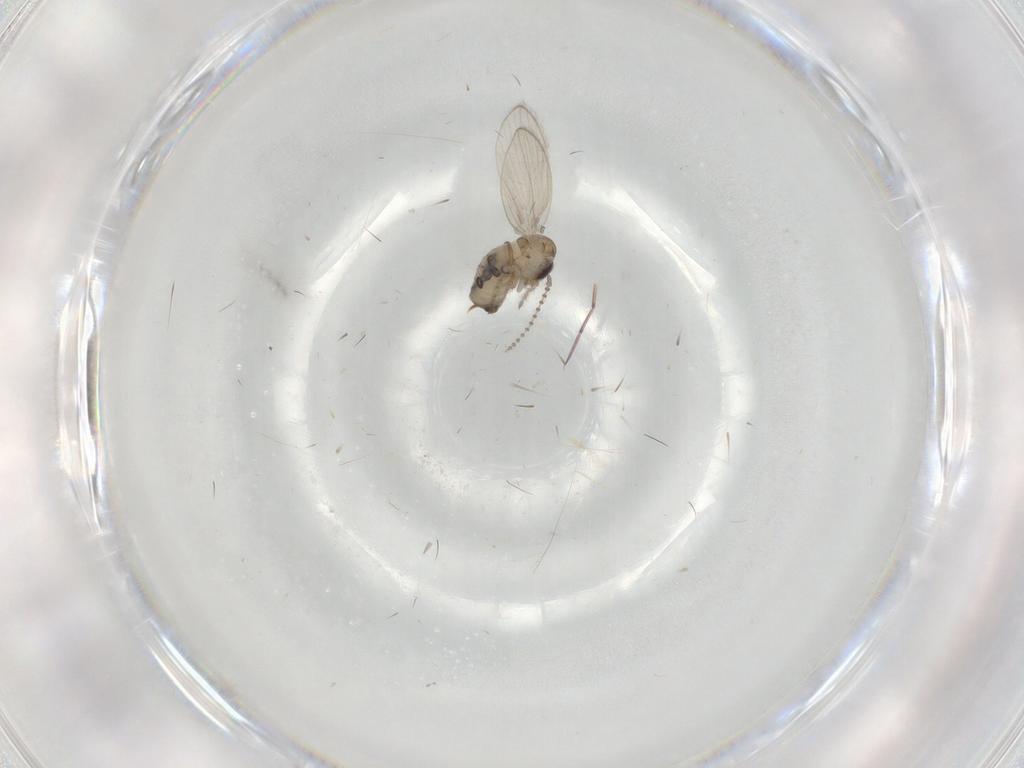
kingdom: Animalia
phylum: Arthropoda
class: Insecta
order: Diptera
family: Psychodidae
